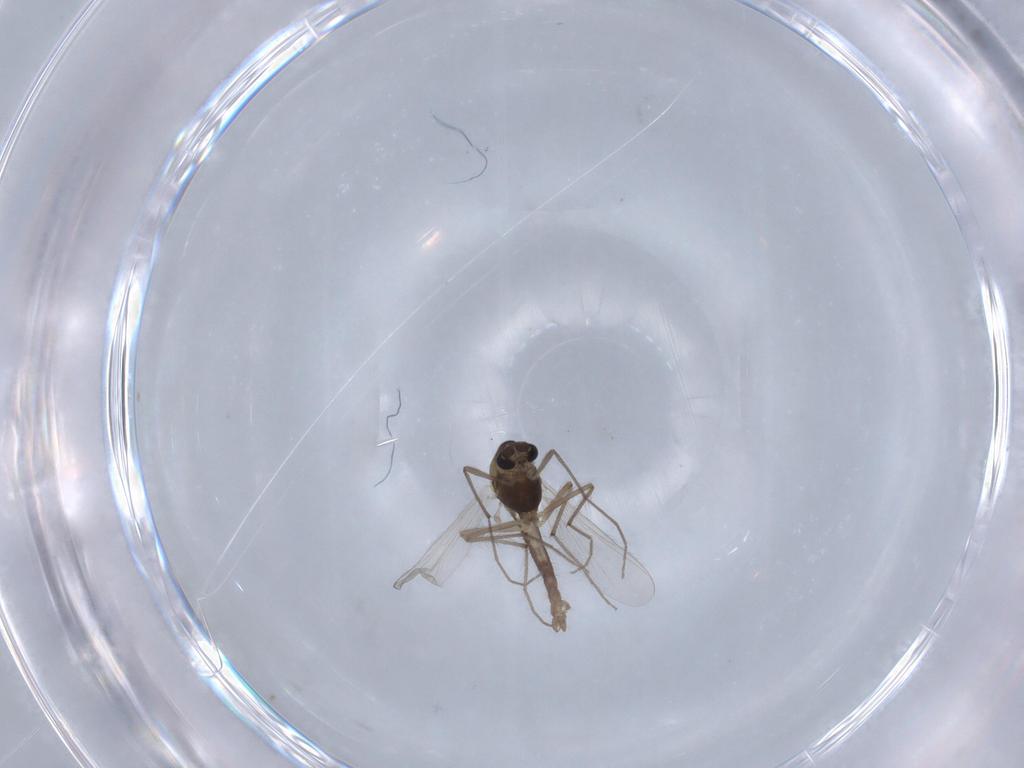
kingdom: Animalia
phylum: Arthropoda
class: Insecta
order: Diptera
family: Chironomidae
